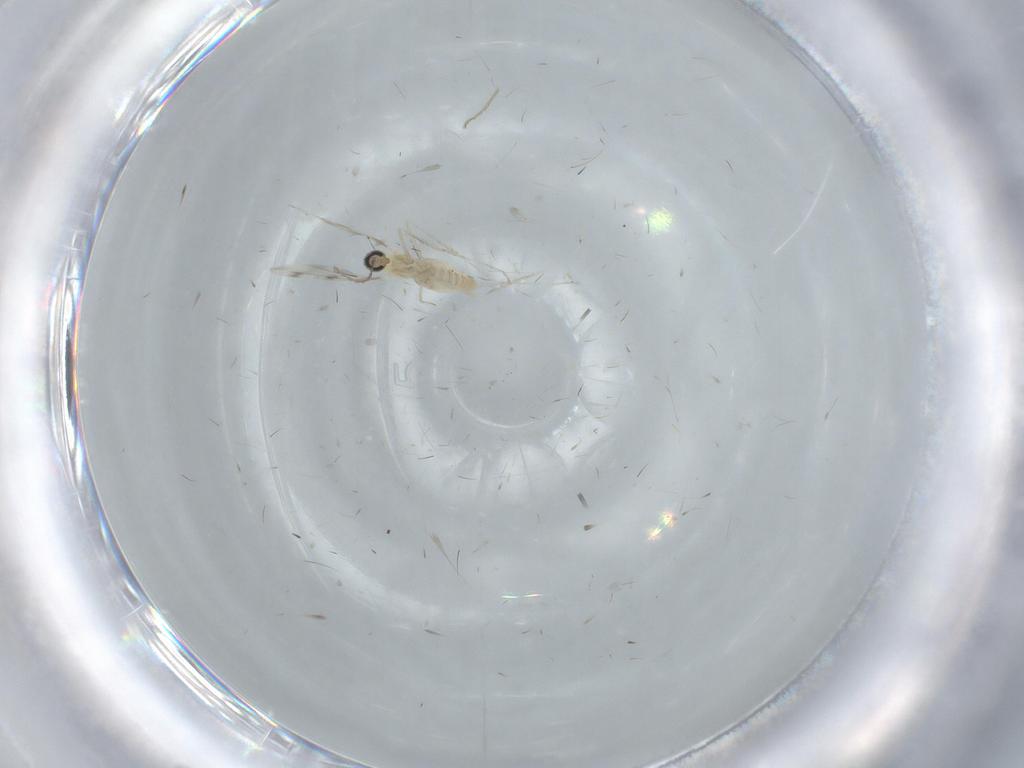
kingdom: Animalia
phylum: Arthropoda
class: Insecta
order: Diptera
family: Cecidomyiidae
